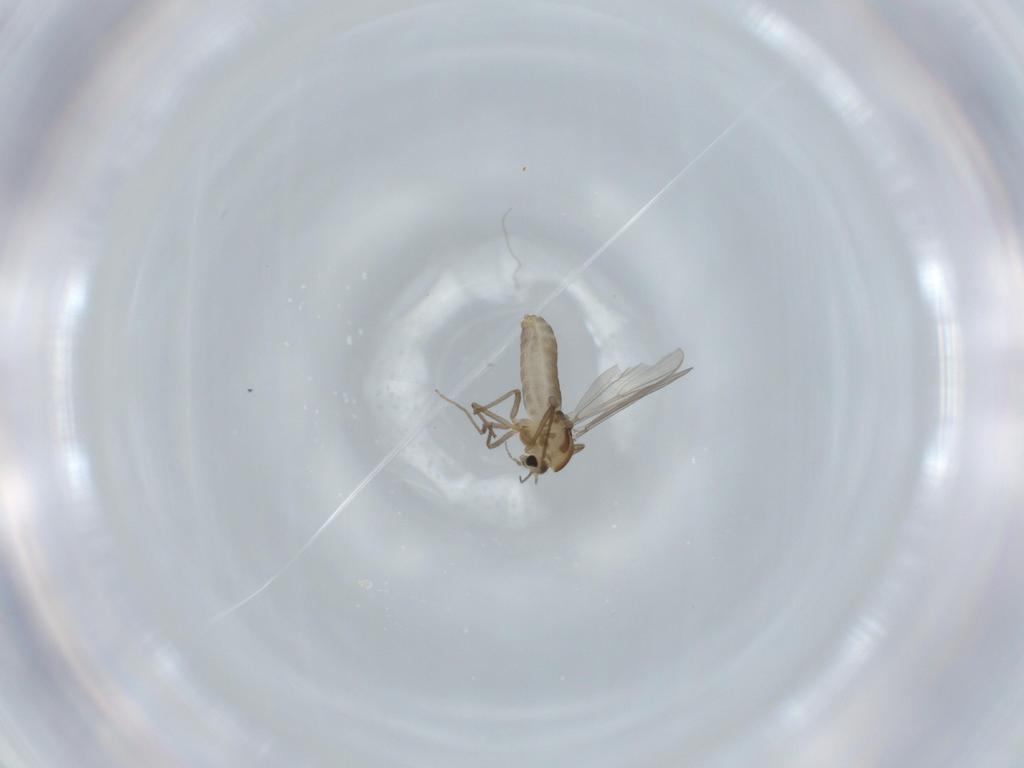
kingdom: Animalia
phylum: Arthropoda
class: Insecta
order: Diptera
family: Chironomidae
